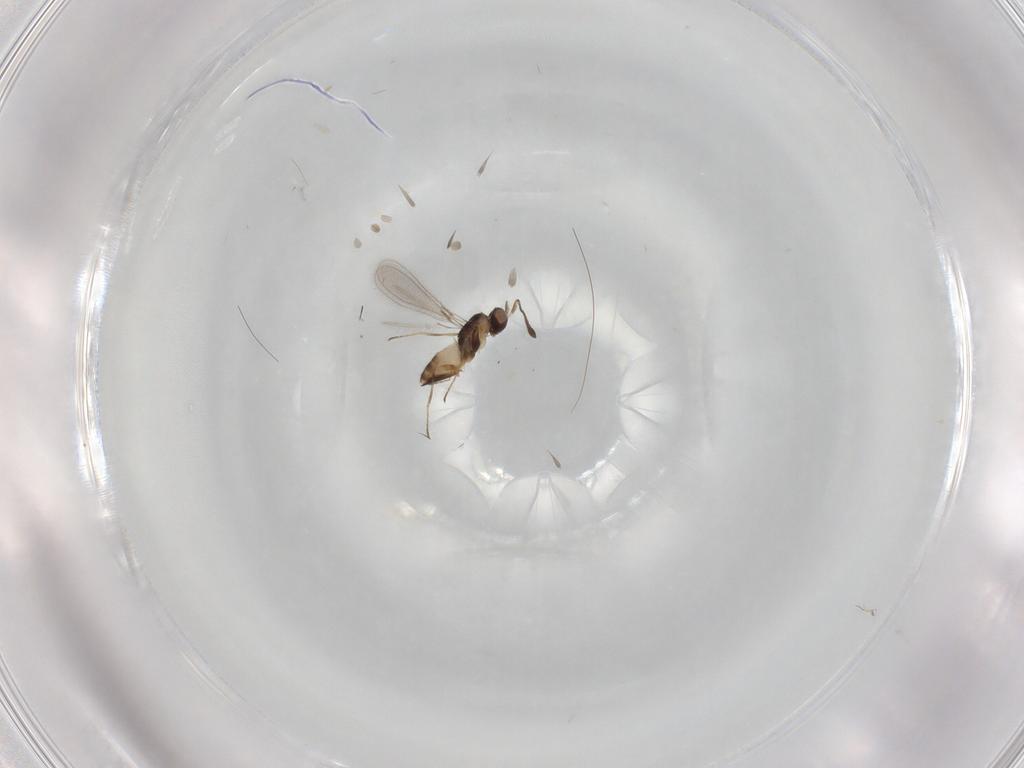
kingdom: Animalia
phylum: Arthropoda
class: Insecta
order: Hymenoptera
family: Mymaridae
